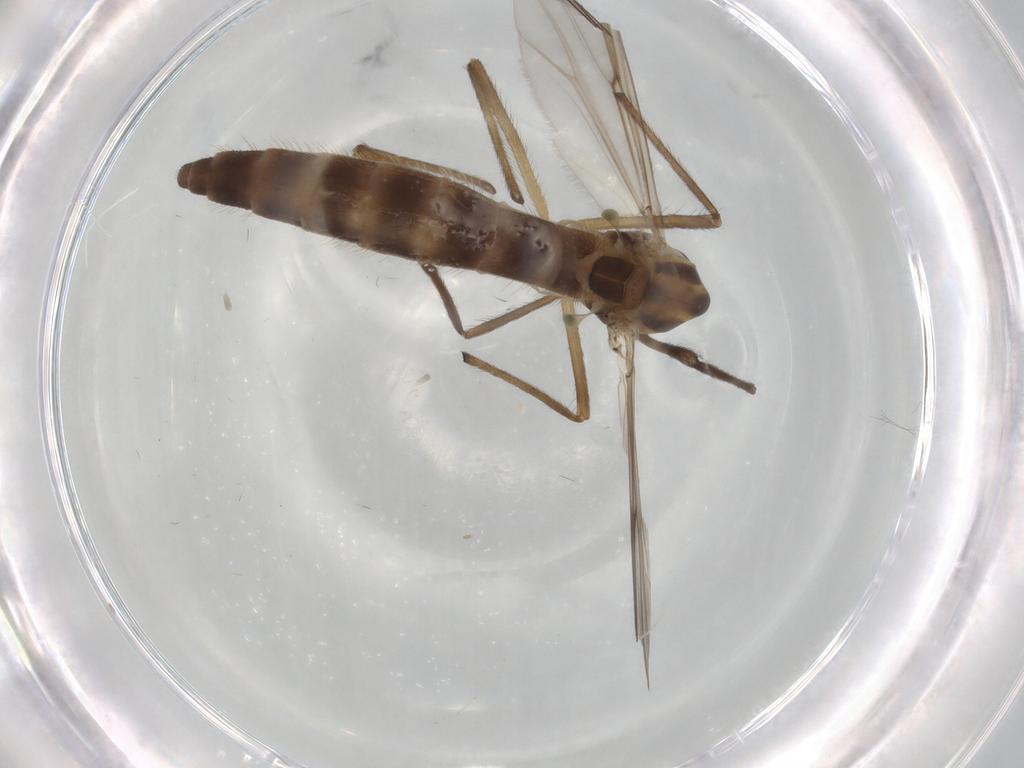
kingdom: Animalia
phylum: Arthropoda
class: Insecta
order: Diptera
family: Chironomidae
